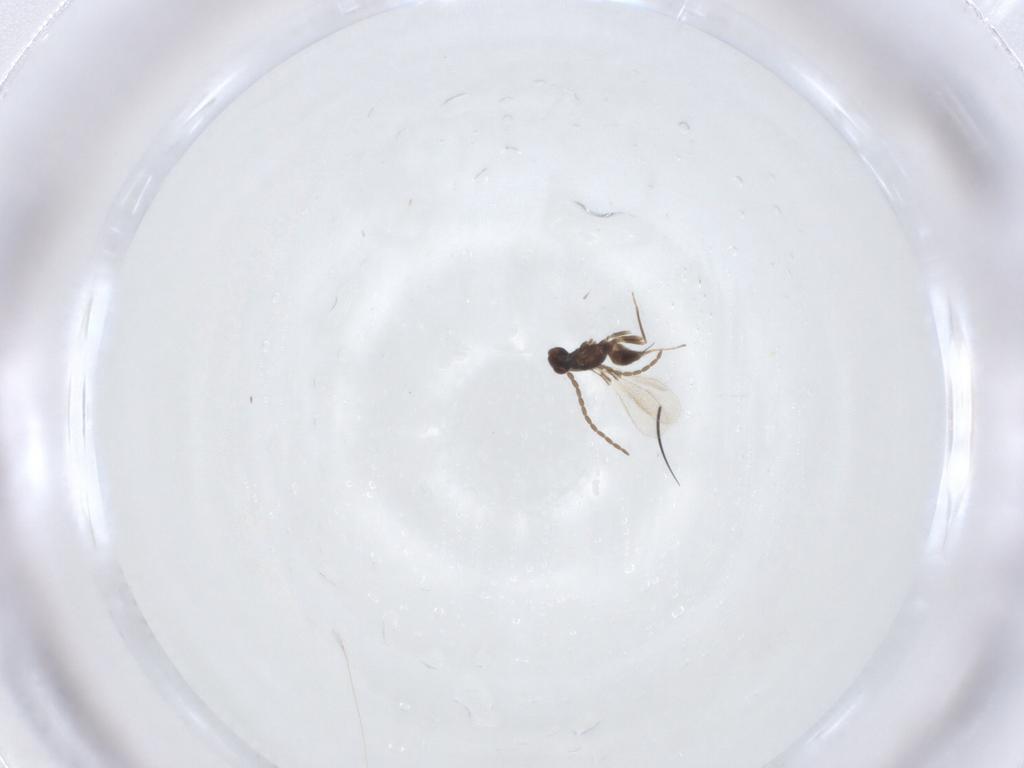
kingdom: Animalia
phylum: Arthropoda
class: Insecta
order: Hymenoptera
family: Mymaridae
